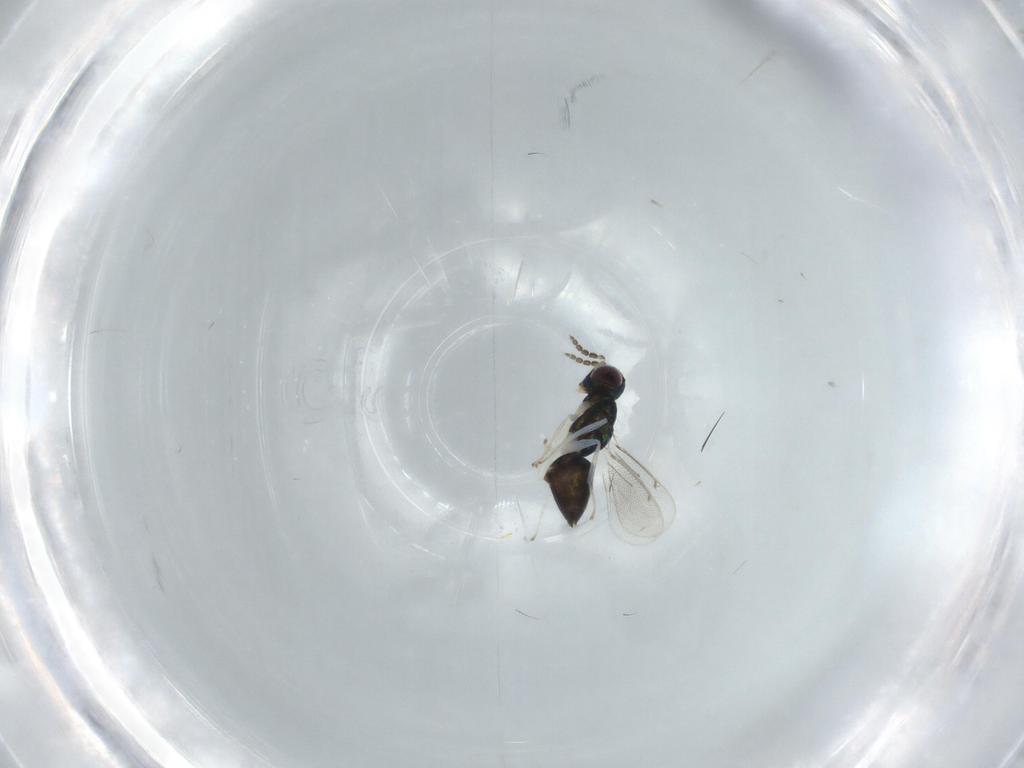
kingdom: Animalia
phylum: Arthropoda
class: Insecta
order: Hymenoptera
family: Eulophidae
